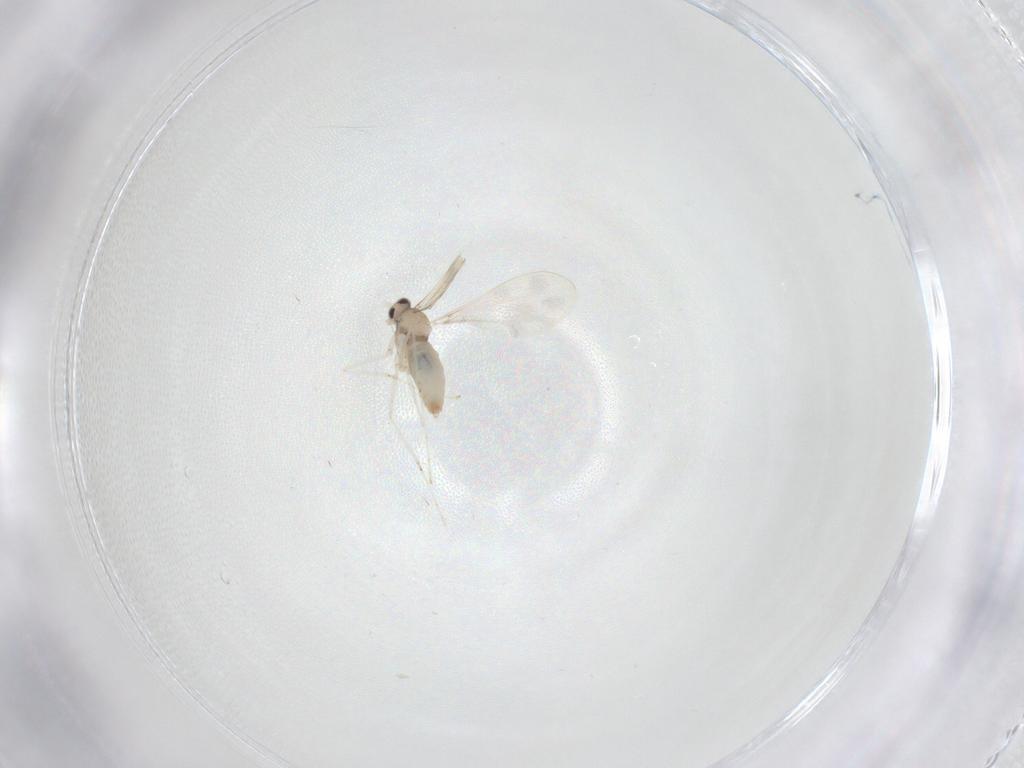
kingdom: Animalia
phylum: Arthropoda
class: Insecta
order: Diptera
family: Cecidomyiidae
